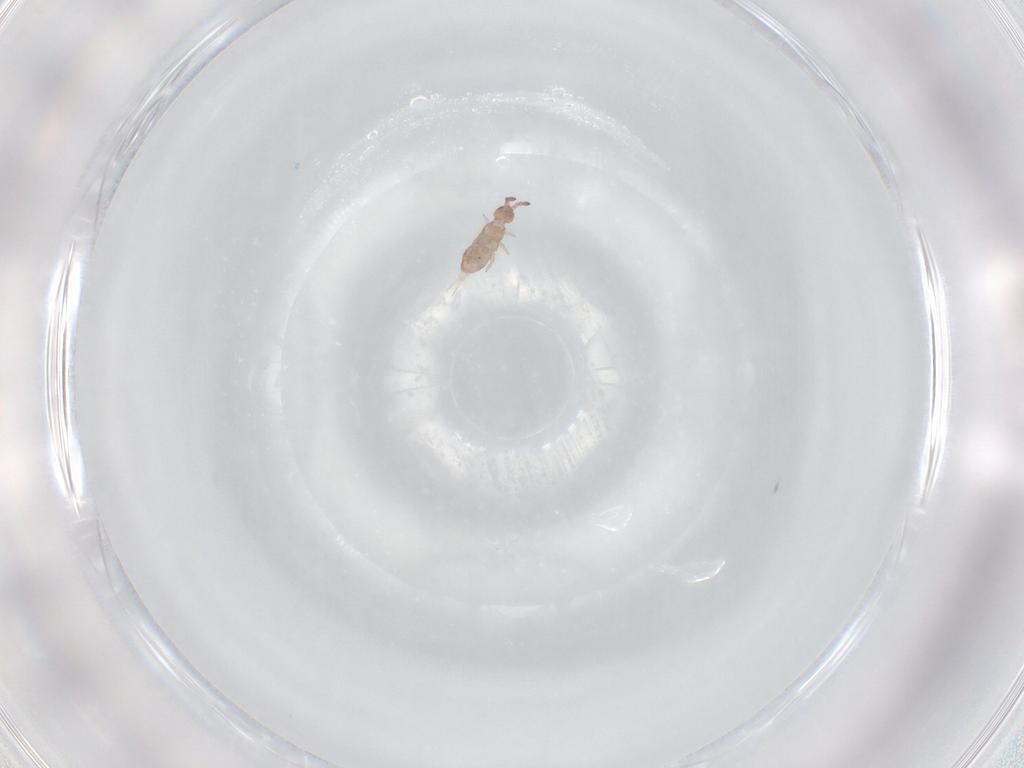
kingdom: Animalia
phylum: Arthropoda
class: Collembola
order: Entomobryomorpha
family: Isotomidae
